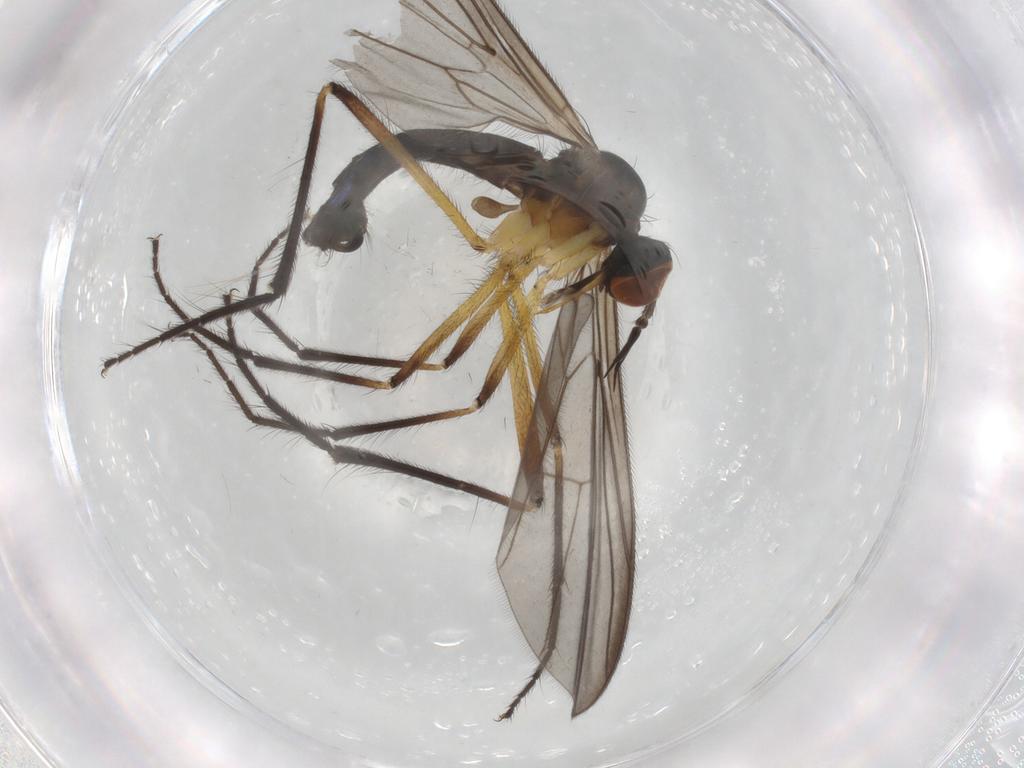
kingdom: Animalia
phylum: Arthropoda
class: Insecta
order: Diptera
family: Empididae
